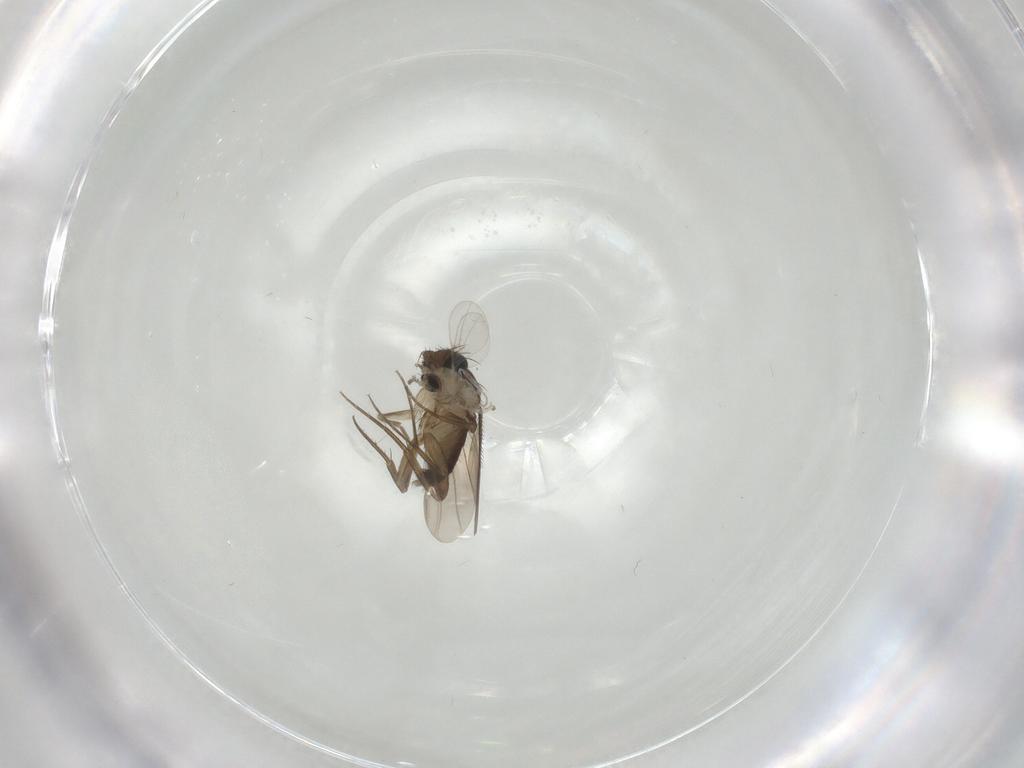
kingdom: Animalia
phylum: Arthropoda
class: Insecta
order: Diptera
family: Phoridae
